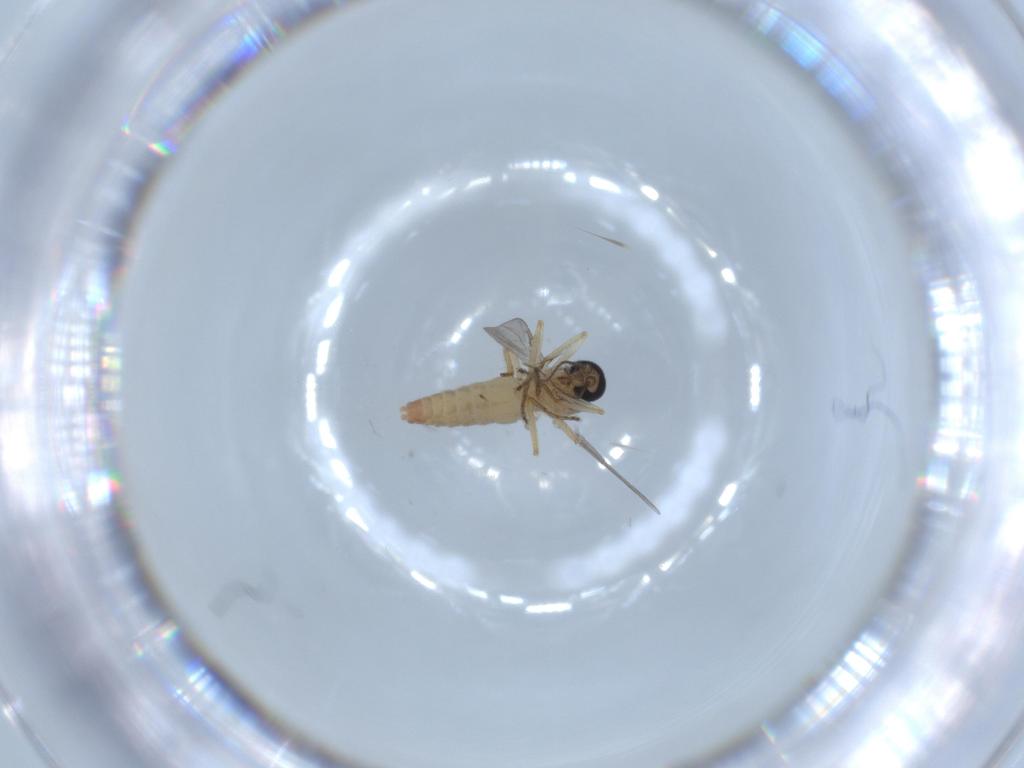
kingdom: Animalia
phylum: Arthropoda
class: Insecta
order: Diptera
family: Ceratopogonidae
